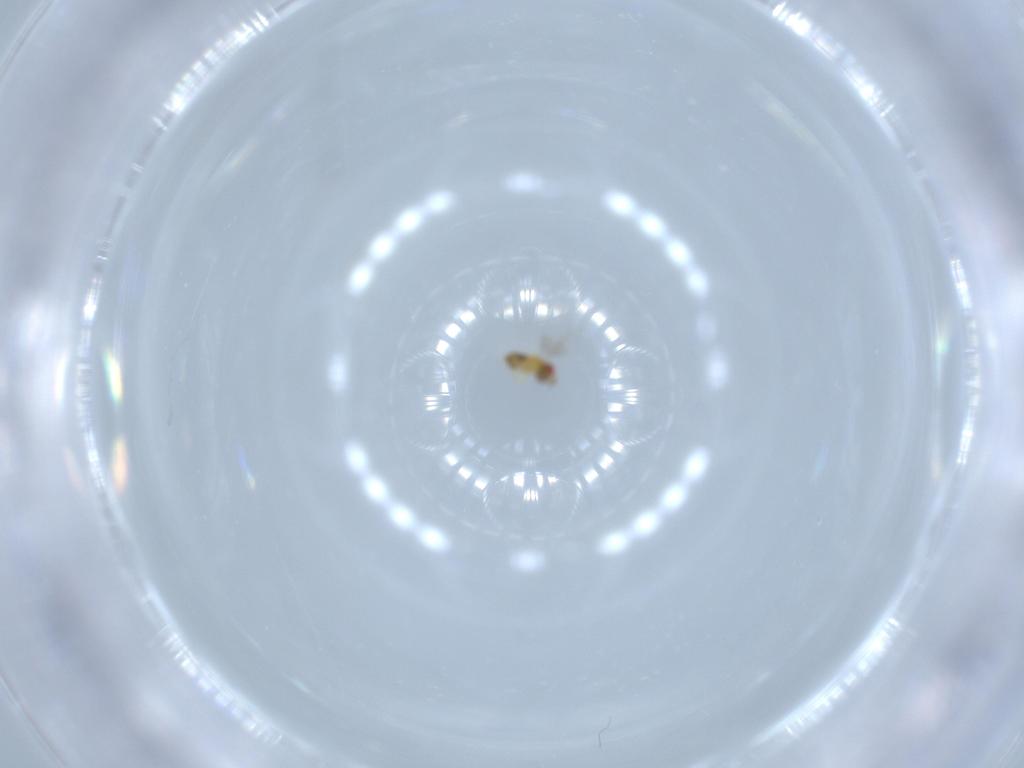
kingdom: Animalia
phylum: Arthropoda
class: Insecta
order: Hymenoptera
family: Trichogrammatidae
